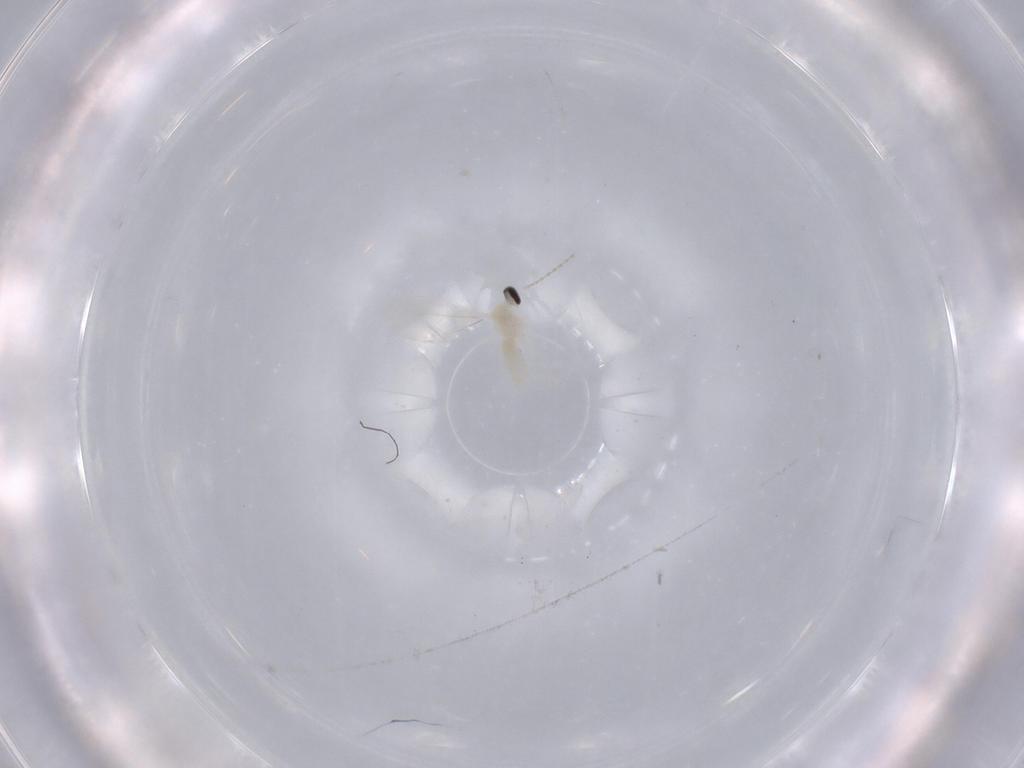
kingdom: Animalia
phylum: Arthropoda
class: Insecta
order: Diptera
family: Cecidomyiidae
